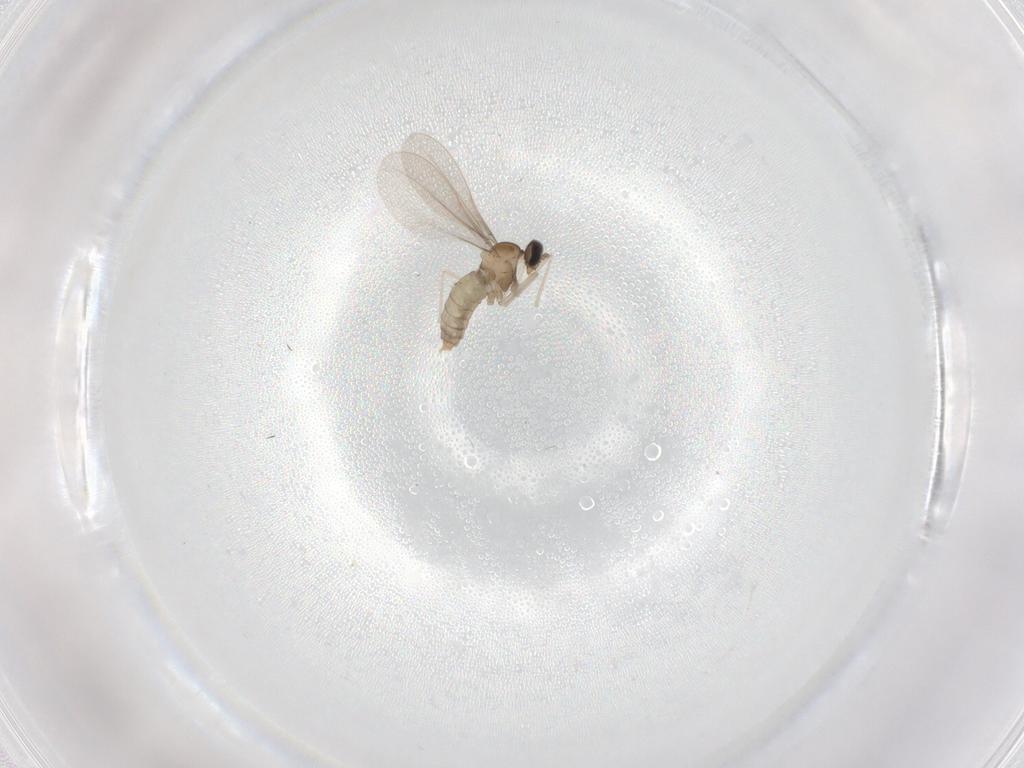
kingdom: Animalia
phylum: Arthropoda
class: Insecta
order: Diptera
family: Cecidomyiidae
